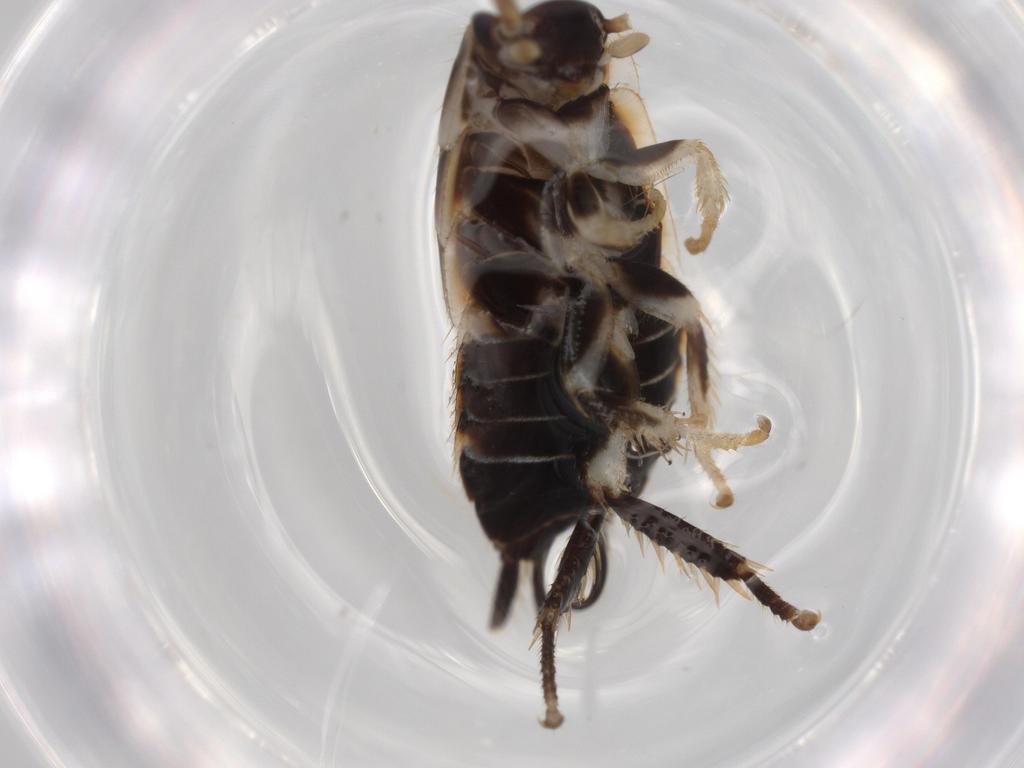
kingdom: Animalia
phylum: Arthropoda
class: Insecta
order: Blattodea
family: Ectobiidae
